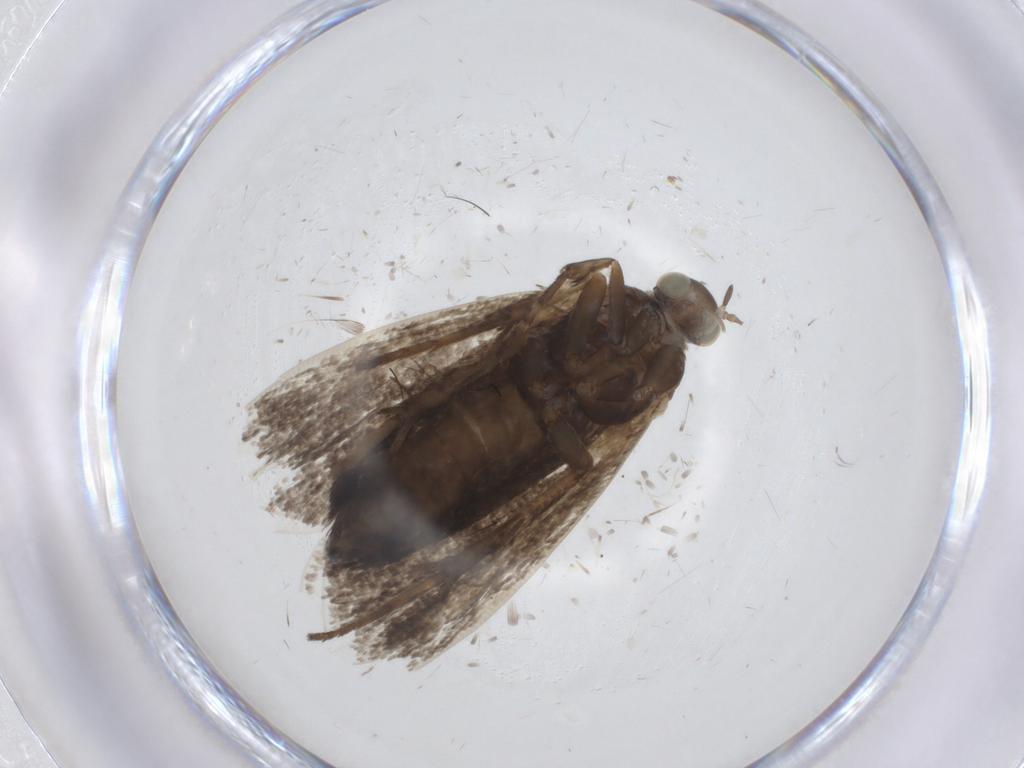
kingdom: Animalia
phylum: Arthropoda
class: Insecta
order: Lepidoptera
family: Choreutidae
